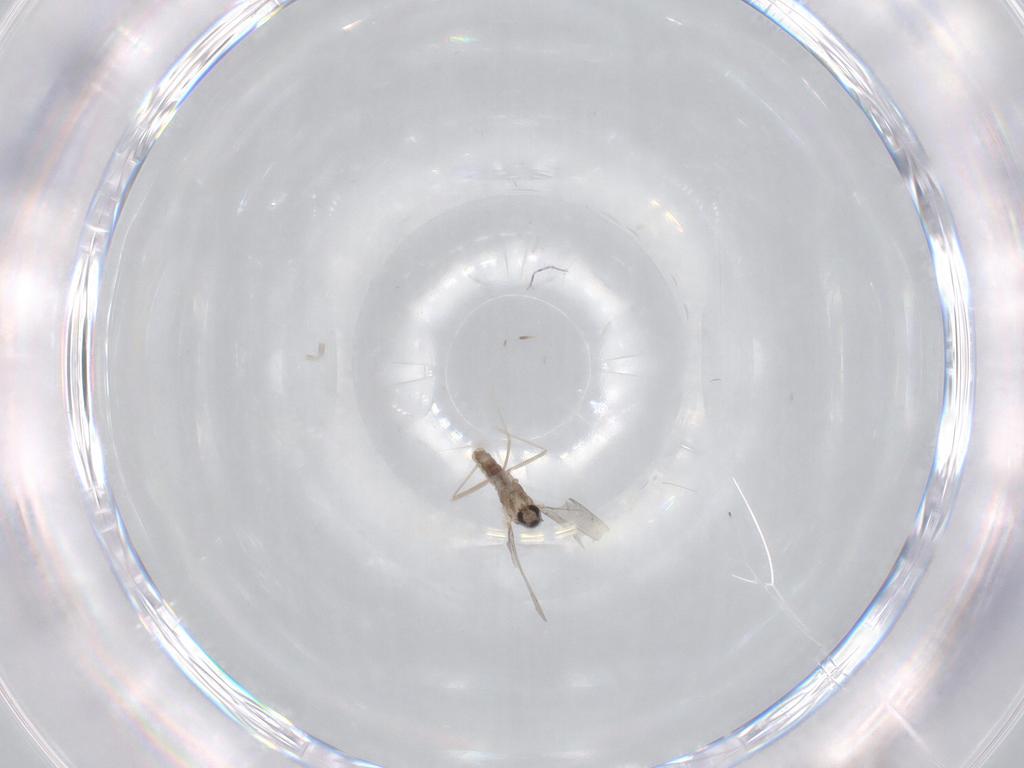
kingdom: Animalia
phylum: Arthropoda
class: Insecta
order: Diptera
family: Cecidomyiidae
